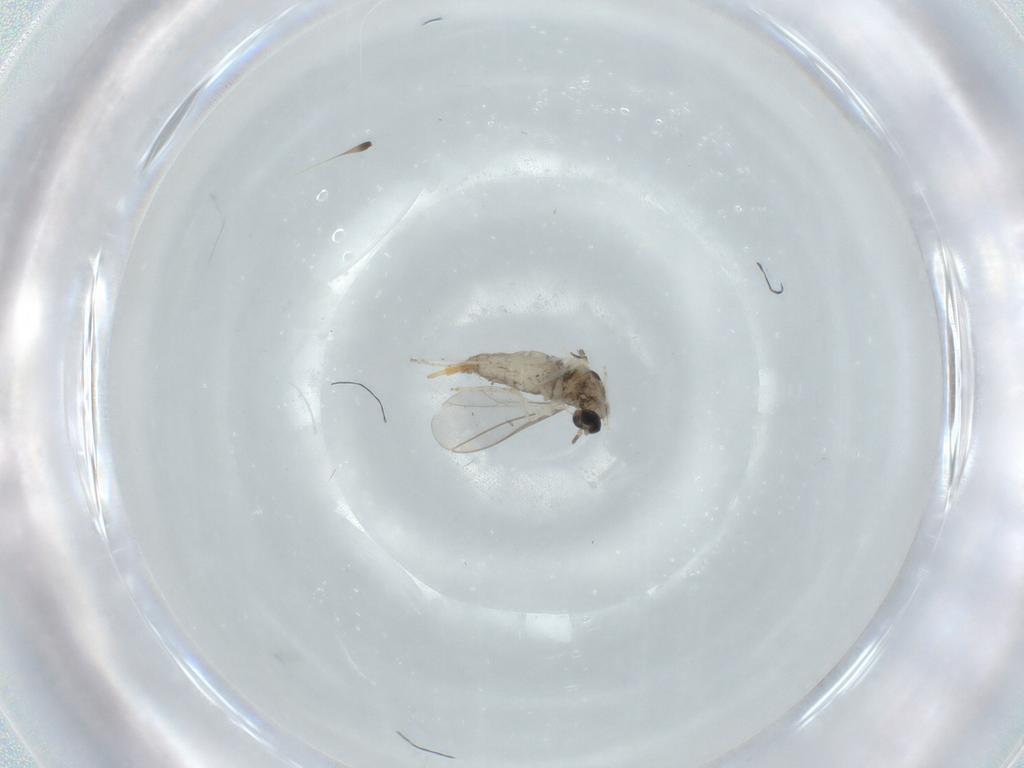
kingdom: Animalia
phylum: Arthropoda
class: Insecta
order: Diptera
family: Cecidomyiidae
